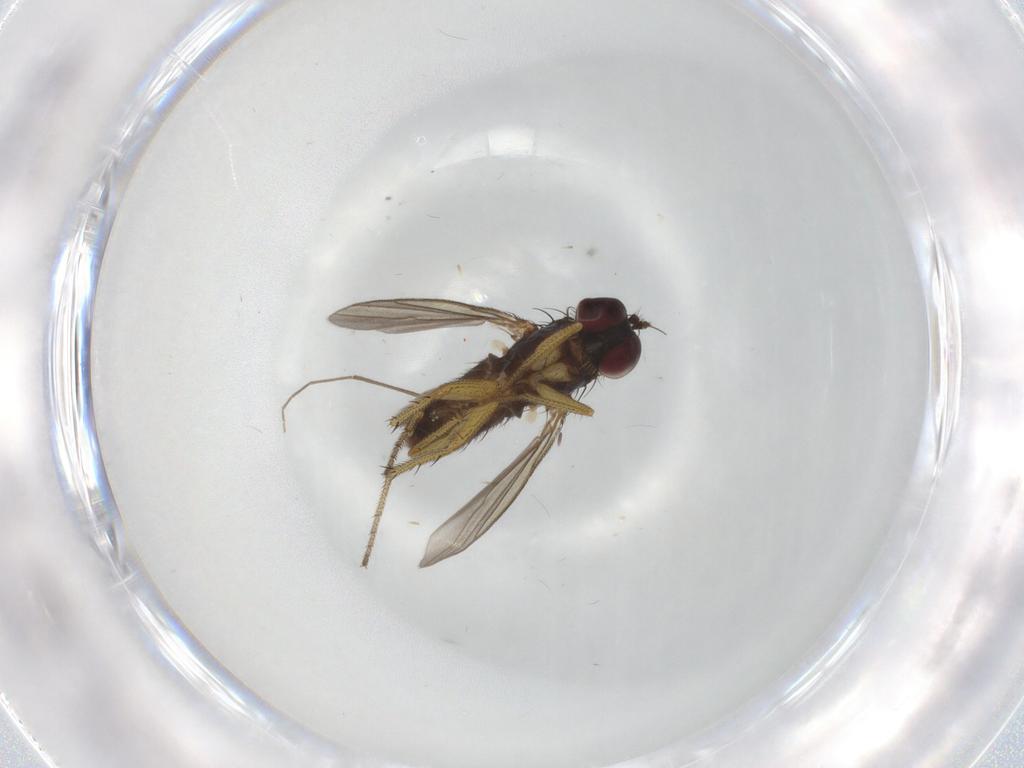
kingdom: Animalia
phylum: Arthropoda
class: Insecta
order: Diptera
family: Dolichopodidae
